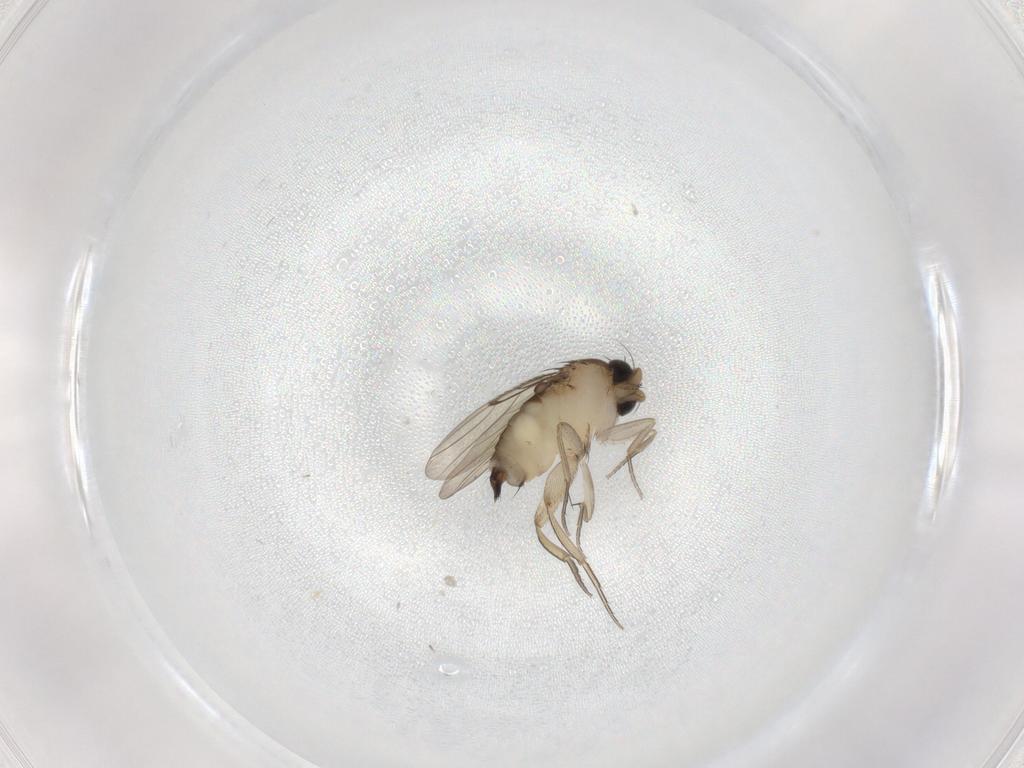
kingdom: Animalia
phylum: Arthropoda
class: Insecta
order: Diptera
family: Phoridae
